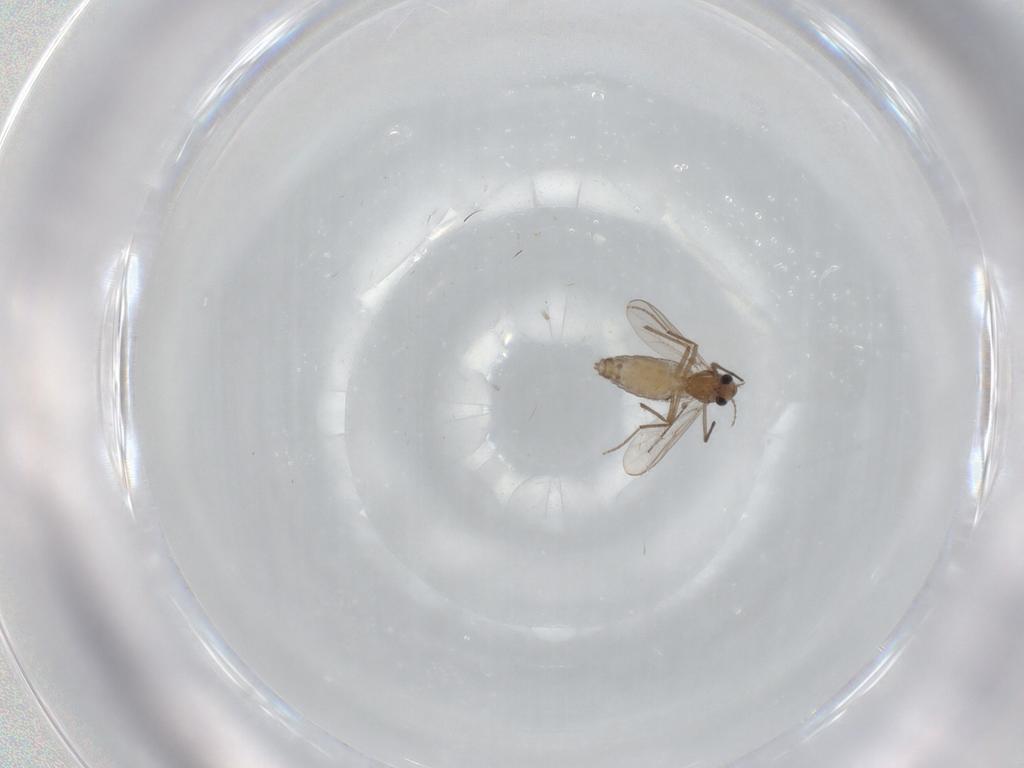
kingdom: Animalia
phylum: Arthropoda
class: Insecta
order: Diptera
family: Chironomidae
